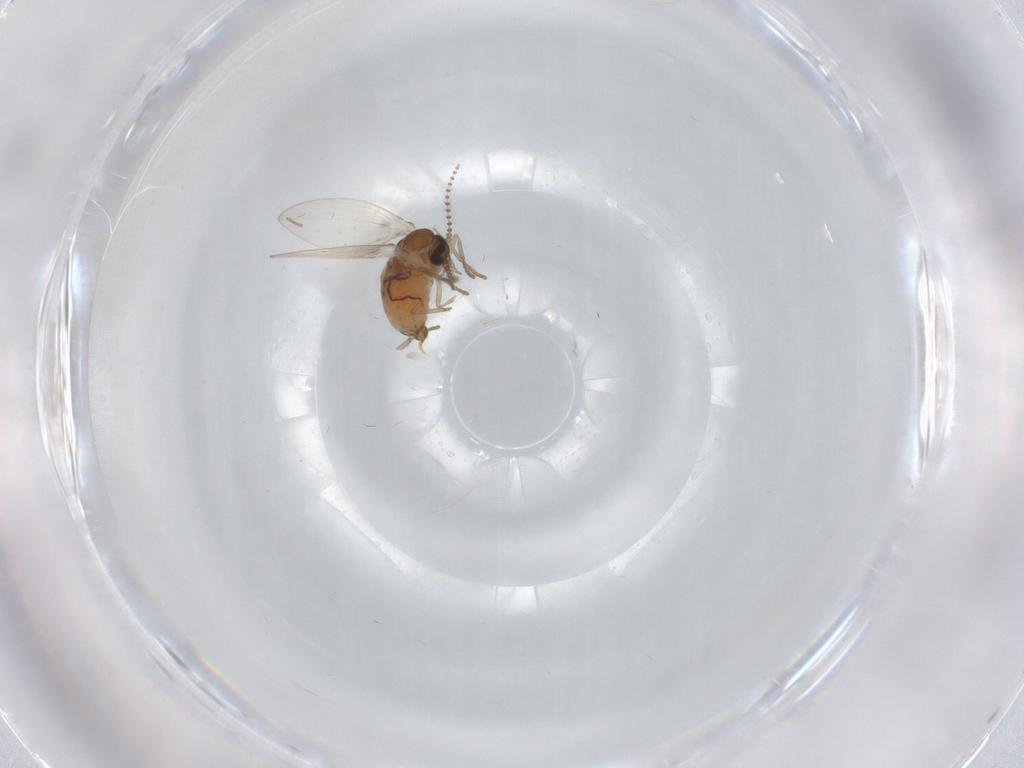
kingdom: Animalia
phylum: Arthropoda
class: Insecta
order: Diptera
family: Psychodidae
